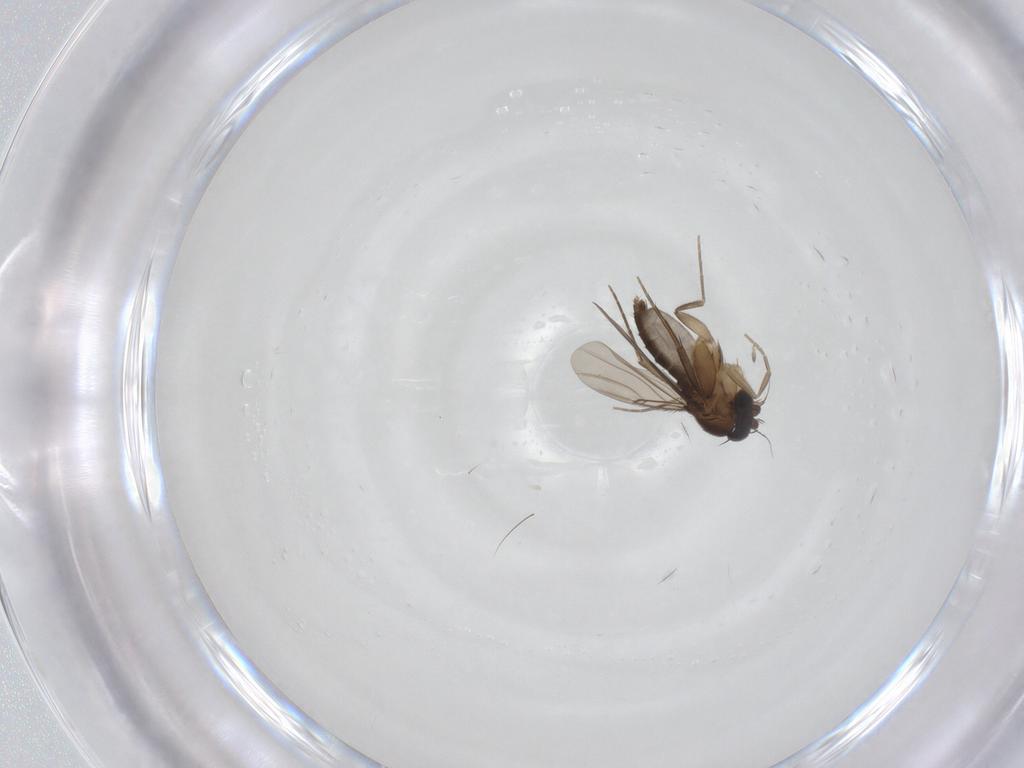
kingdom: Animalia
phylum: Arthropoda
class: Insecta
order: Diptera
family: Phoridae
